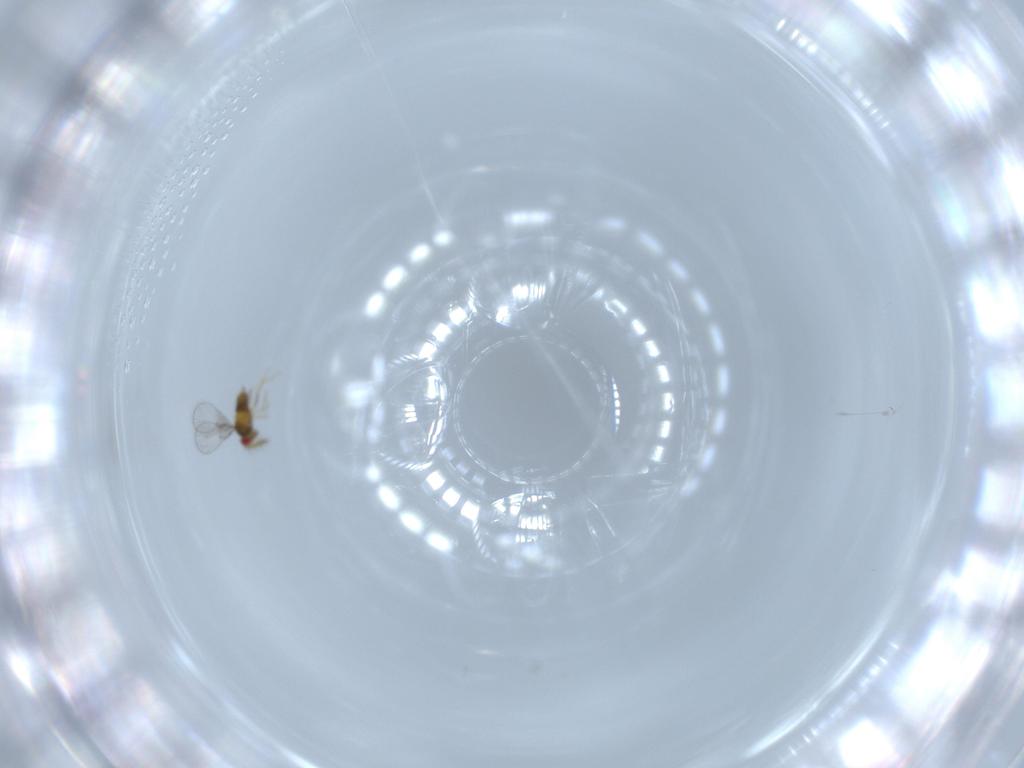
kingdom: Animalia
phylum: Arthropoda
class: Insecta
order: Hymenoptera
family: Trichogrammatidae
